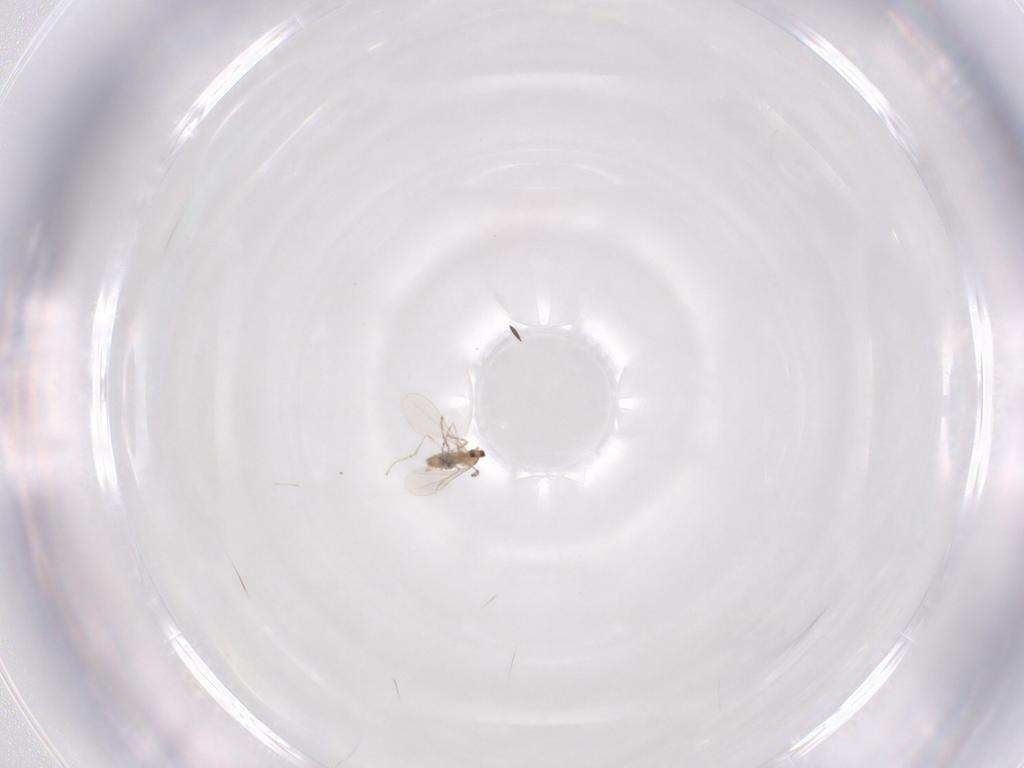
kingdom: Animalia
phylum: Arthropoda
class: Insecta
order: Diptera
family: Cecidomyiidae
